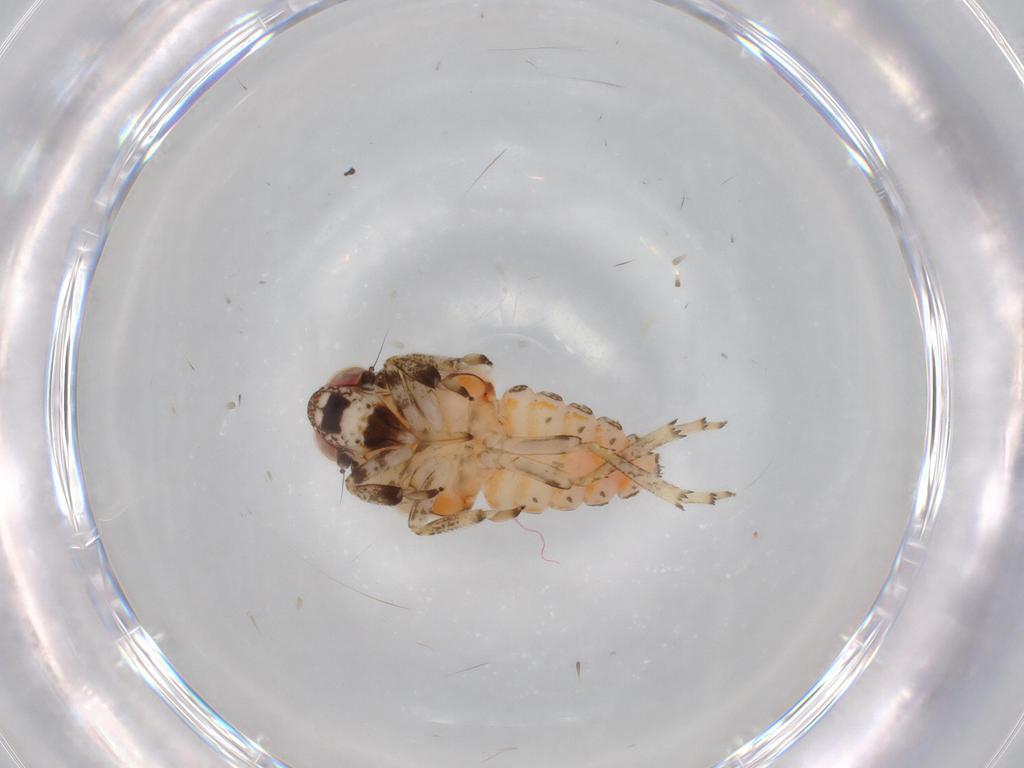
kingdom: Animalia
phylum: Arthropoda
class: Insecta
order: Hemiptera
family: Issidae
